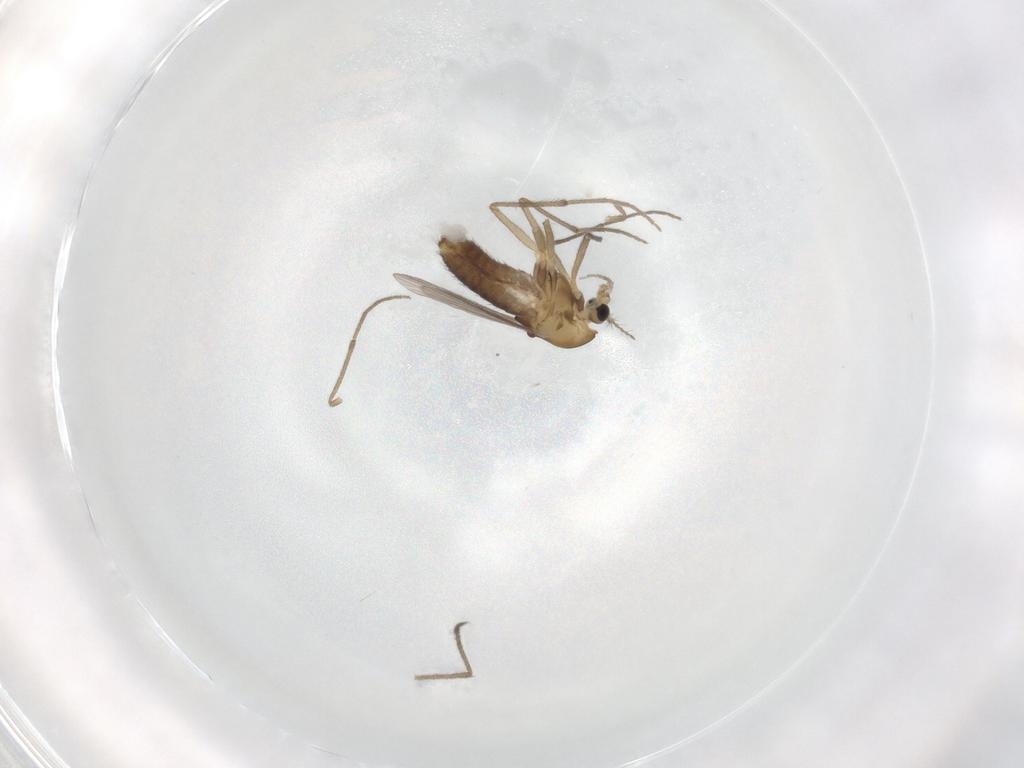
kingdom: Animalia
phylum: Arthropoda
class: Insecta
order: Diptera
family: Chironomidae
